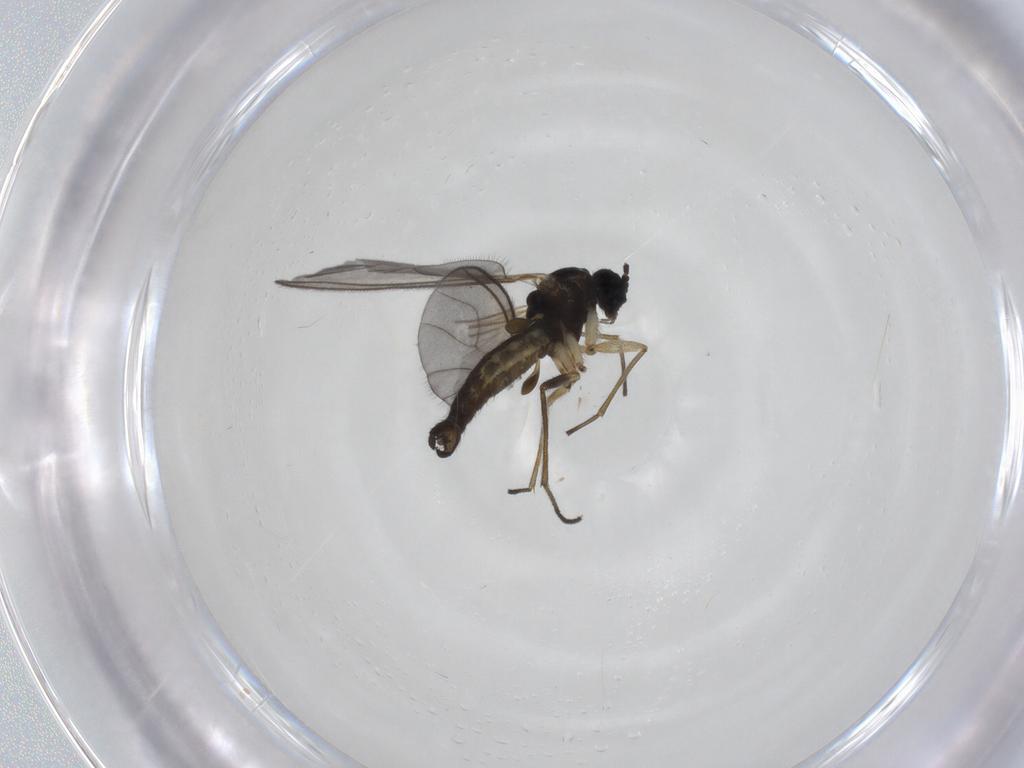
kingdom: Animalia
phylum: Arthropoda
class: Insecta
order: Diptera
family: Sciaridae
